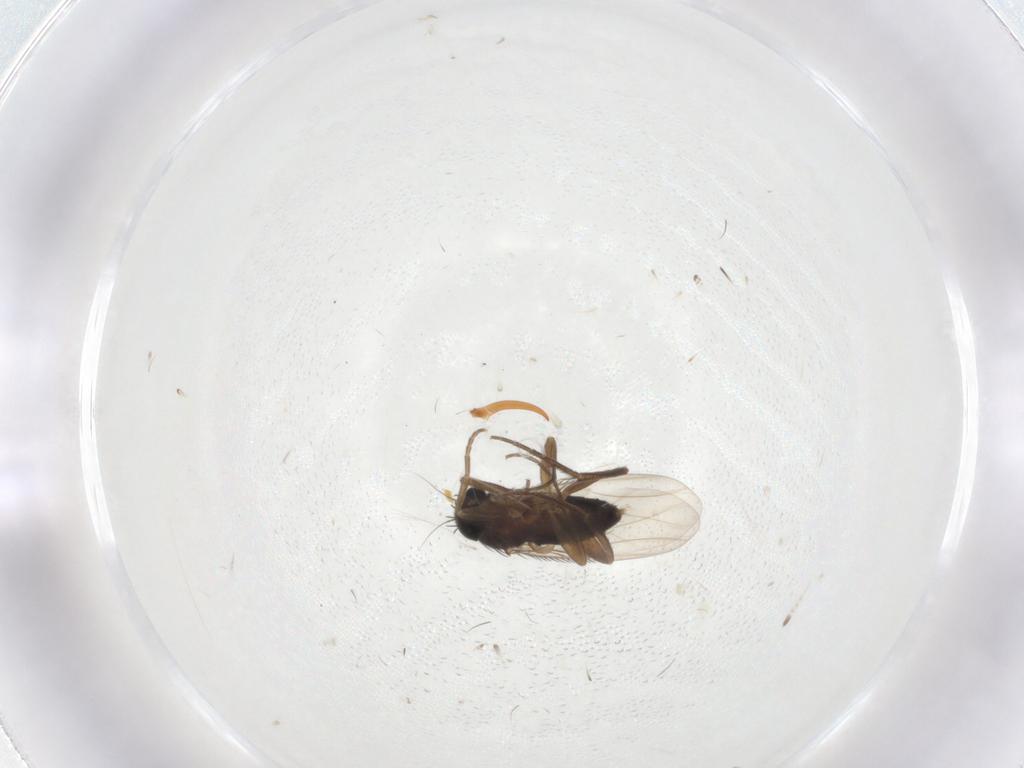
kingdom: Animalia
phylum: Arthropoda
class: Insecta
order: Diptera
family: Phoridae
